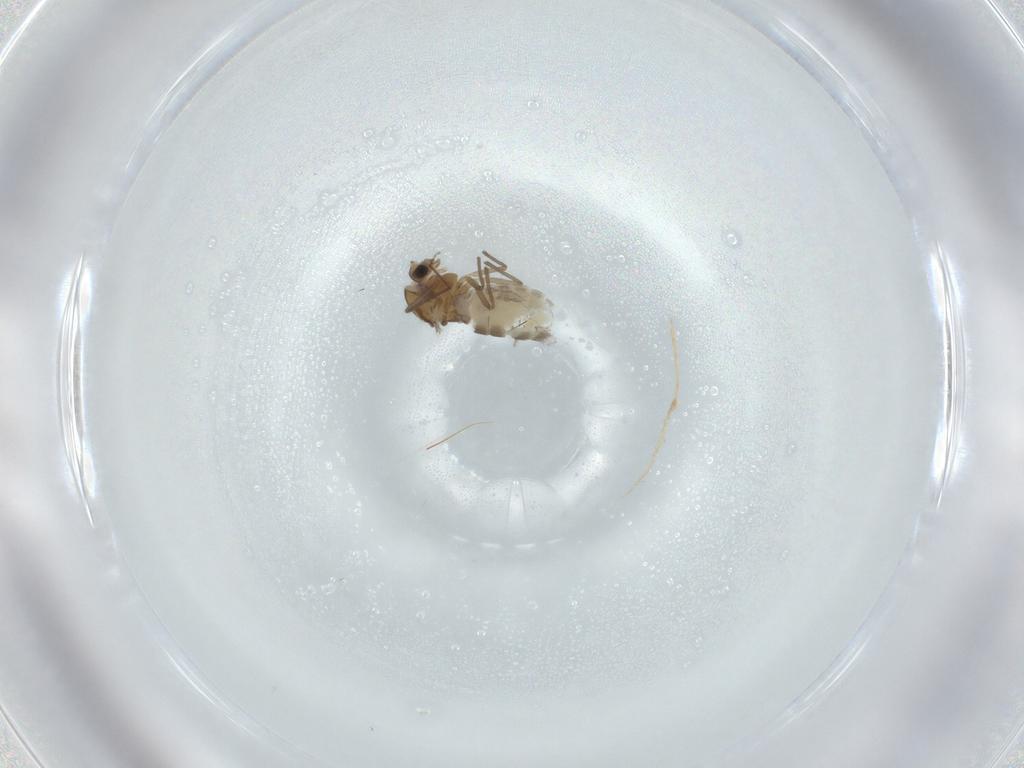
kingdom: Animalia
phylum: Arthropoda
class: Insecta
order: Diptera
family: Chironomidae
